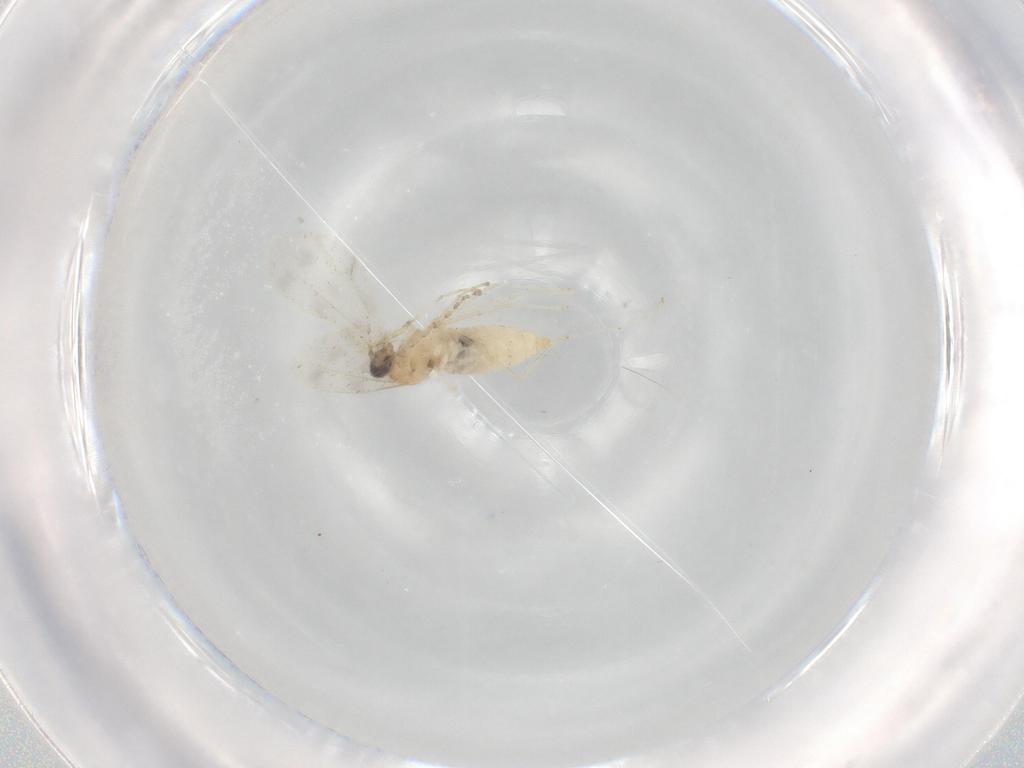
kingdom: Animalia
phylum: Arthropoda
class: Insecta
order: Diptera
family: Cecidomyiidae
